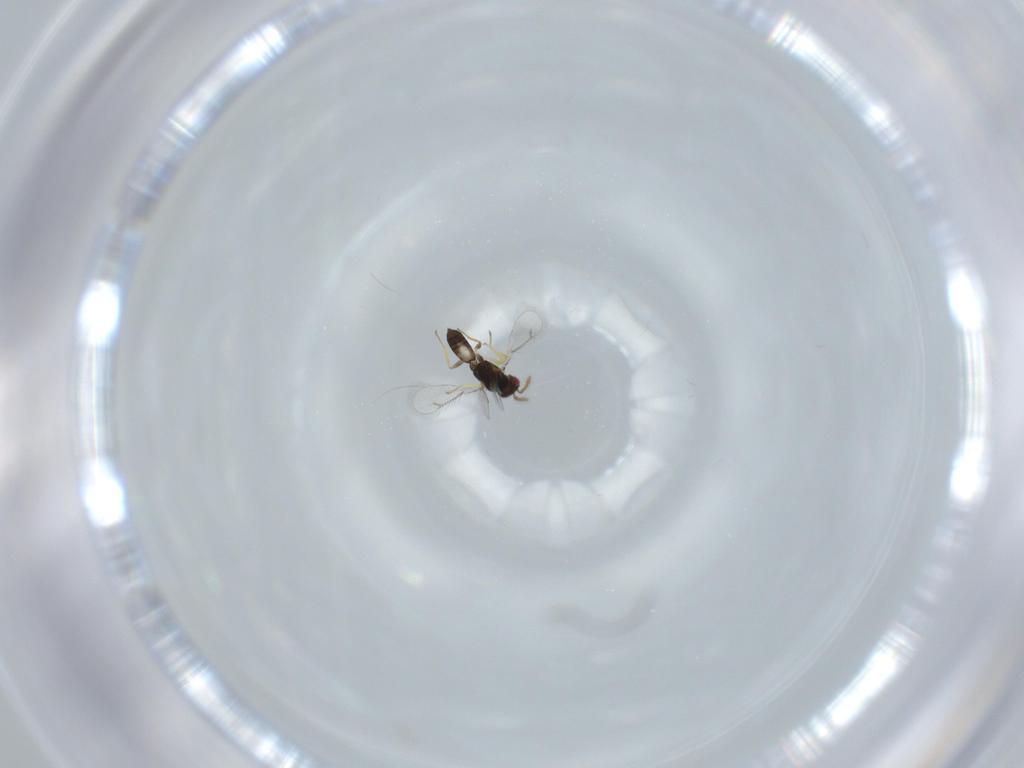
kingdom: Animalia
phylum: Arthropoda
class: Insecta
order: Hymenoptera
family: Eulophidae
